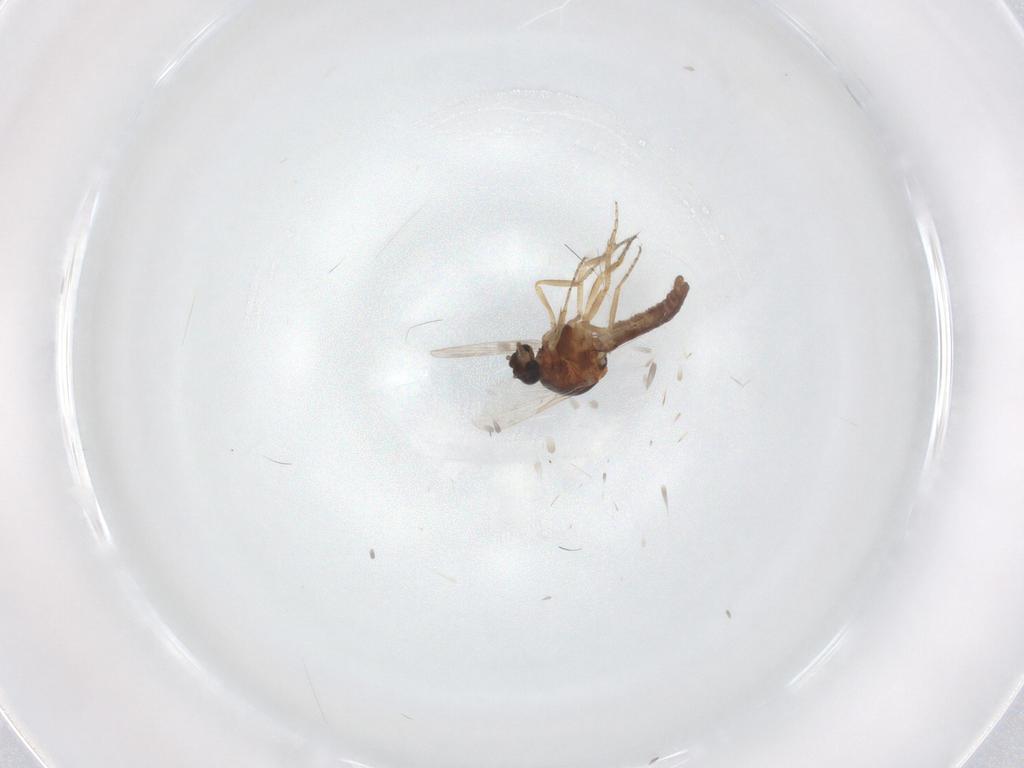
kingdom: Animalia
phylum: Arthropoda
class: Insecta
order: Diptera
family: Ceratopogonidae
